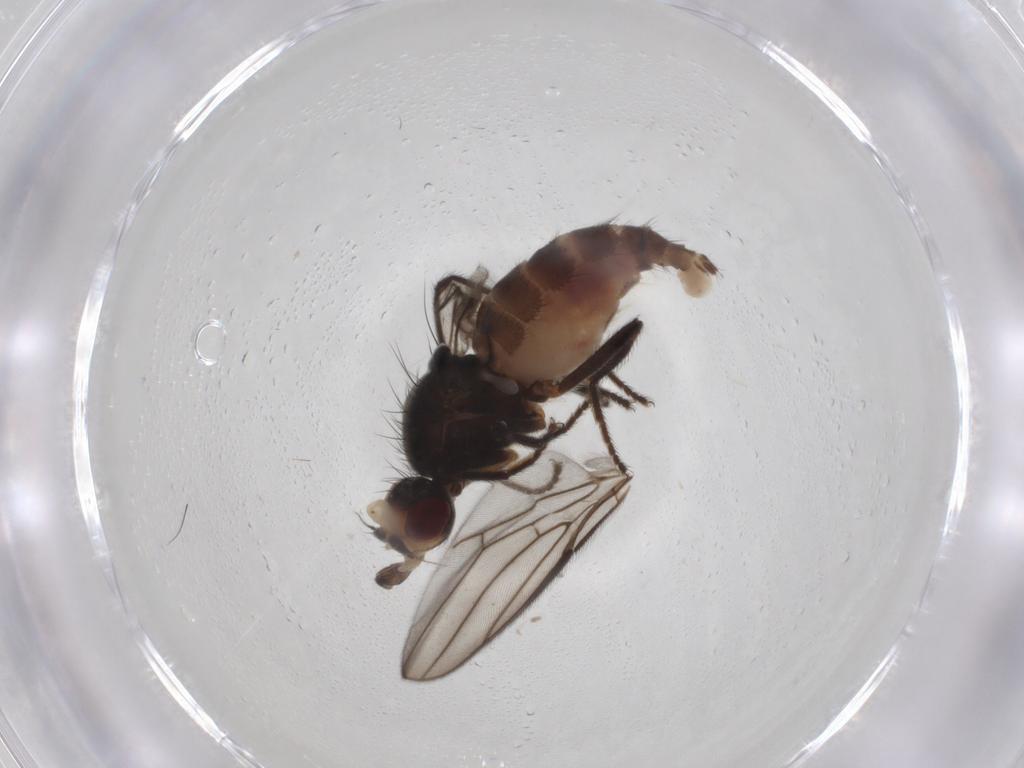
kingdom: Animalia
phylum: Arthropoda
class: Insecta
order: Diptera
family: Chloropidae
